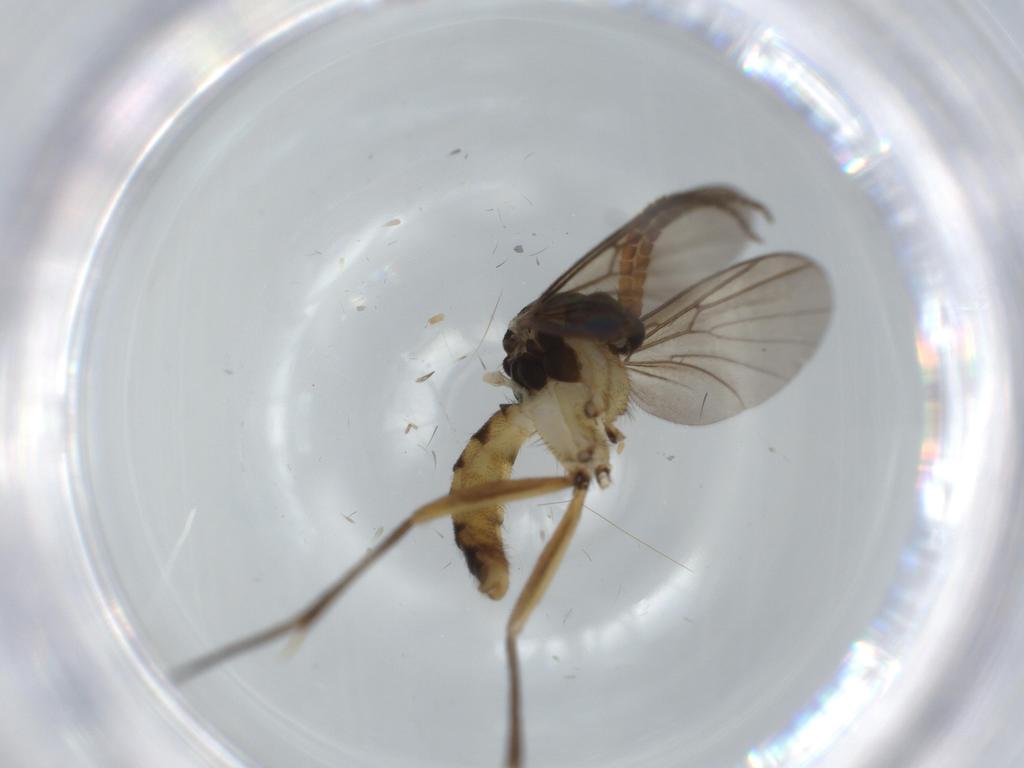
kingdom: Animalia
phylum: Arthropoda
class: Insecta
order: Diptera
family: Chironomidae
